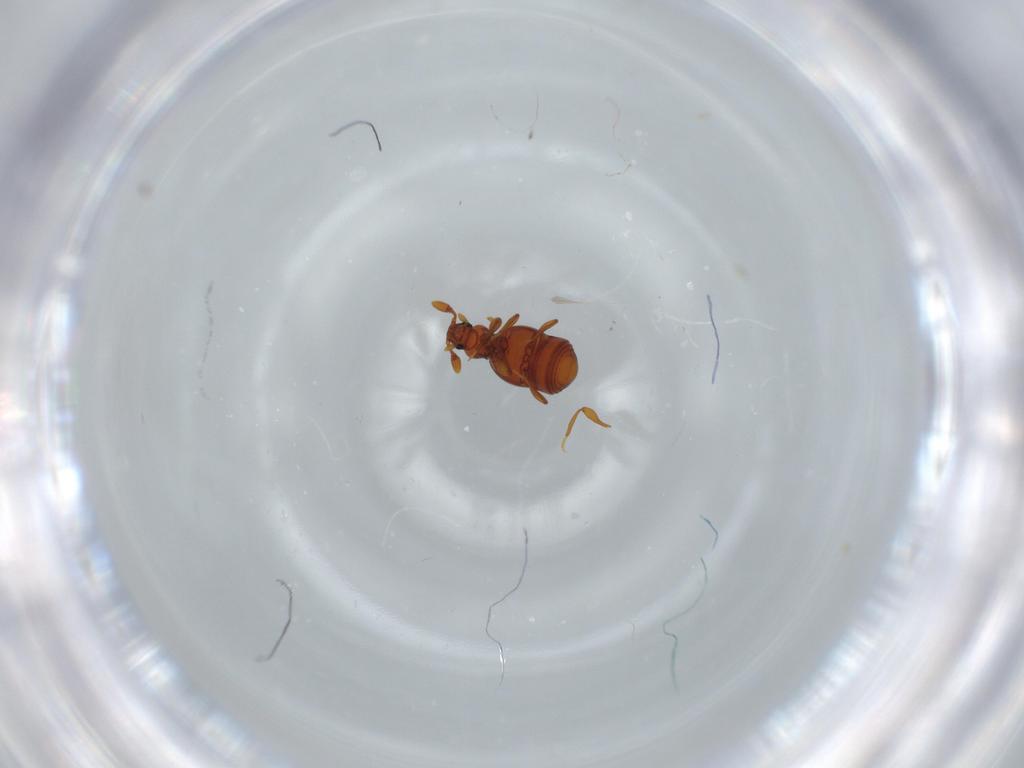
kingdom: Animalia
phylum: Arthropoda
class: Insecta
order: Coleoptera
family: Staphylinidae
